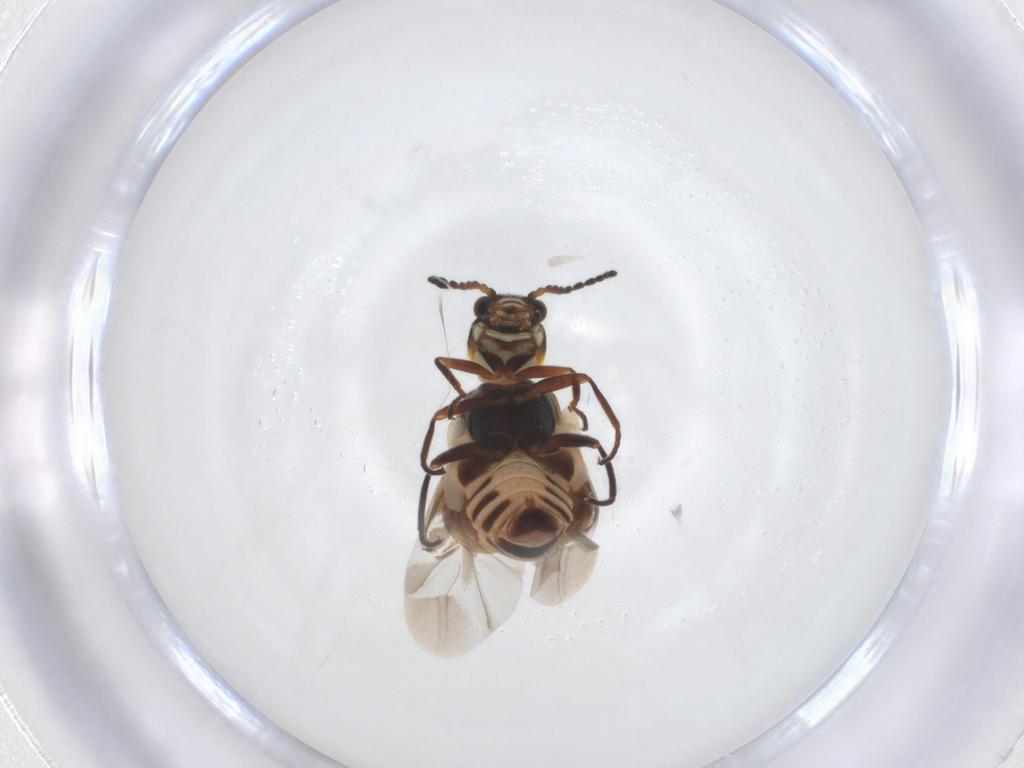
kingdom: Animalia
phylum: Arthropoda
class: Insecta
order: Coleoptera
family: Melyridae
